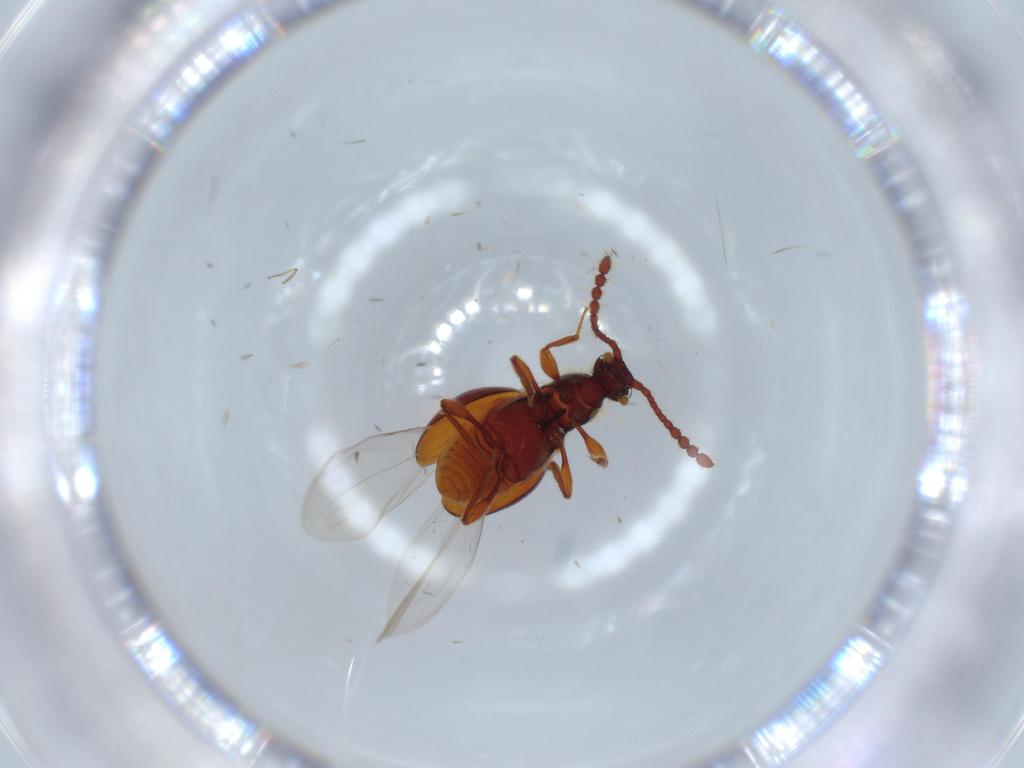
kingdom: Animalia
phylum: Arthropoda
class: Insecta
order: Coleoptera
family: Staphylinidae
